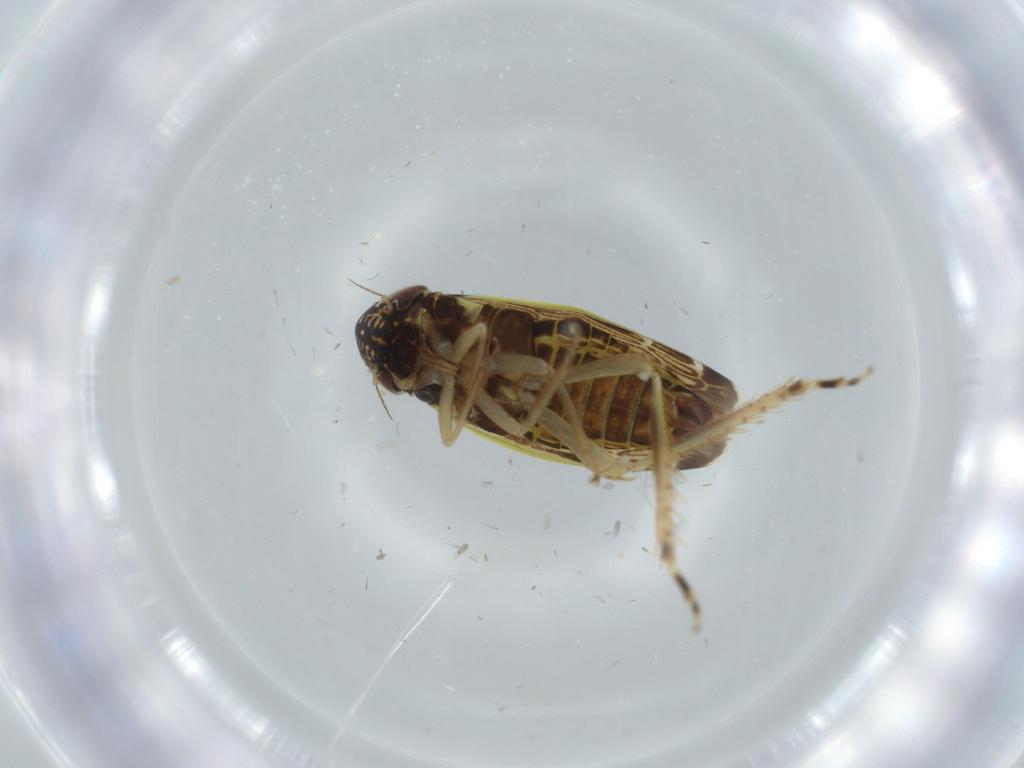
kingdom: Animalia
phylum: Arthropoda
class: Insecta
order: Hemiptera
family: Cicadellidae
